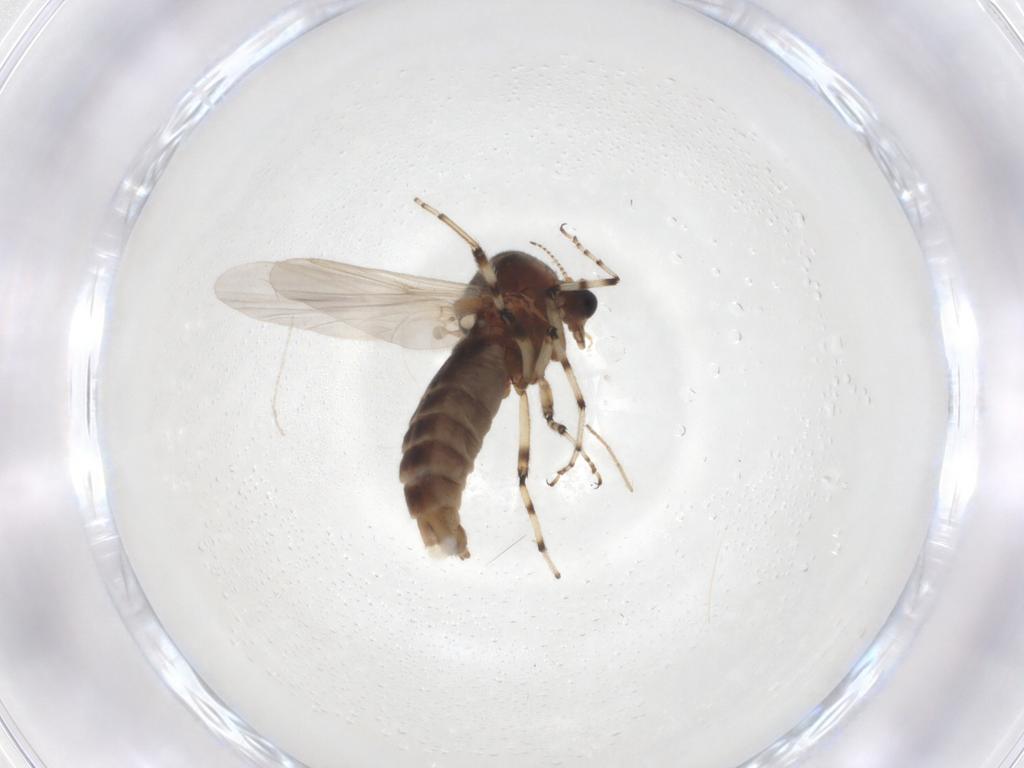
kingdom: Animalia
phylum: Arthropoda
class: Insecta
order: Diptera
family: Ceratopogonidae
